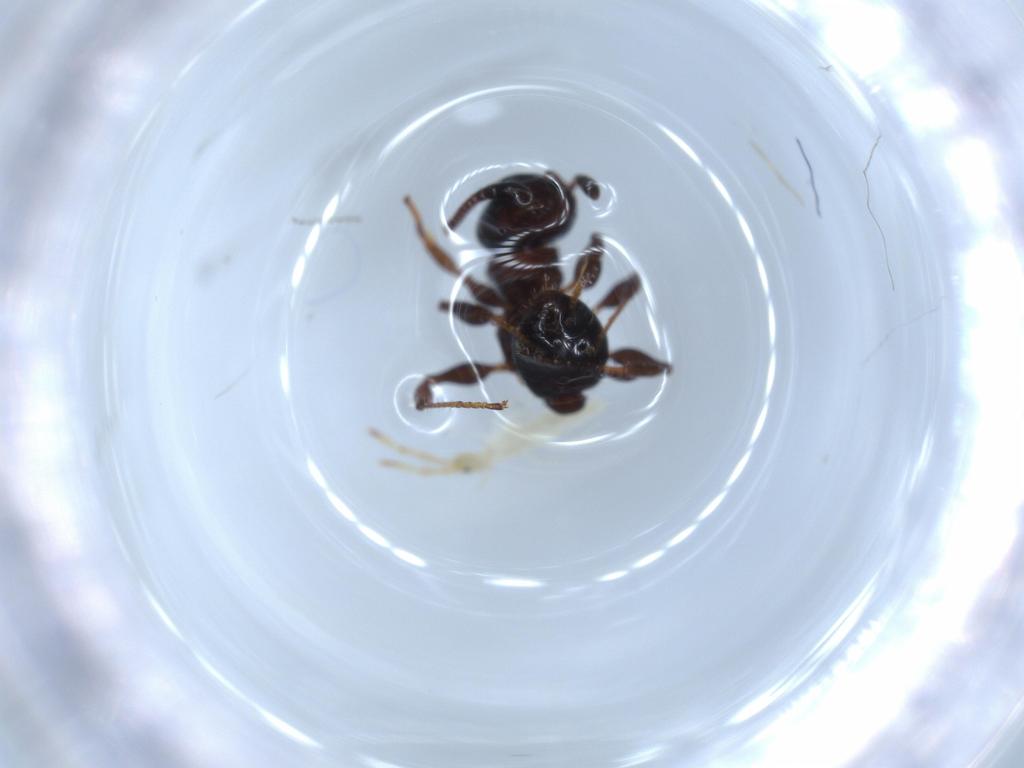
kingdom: Animalia
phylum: Arthropoda
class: Collembola
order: Entomobryomorpha
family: Entomobryidae
